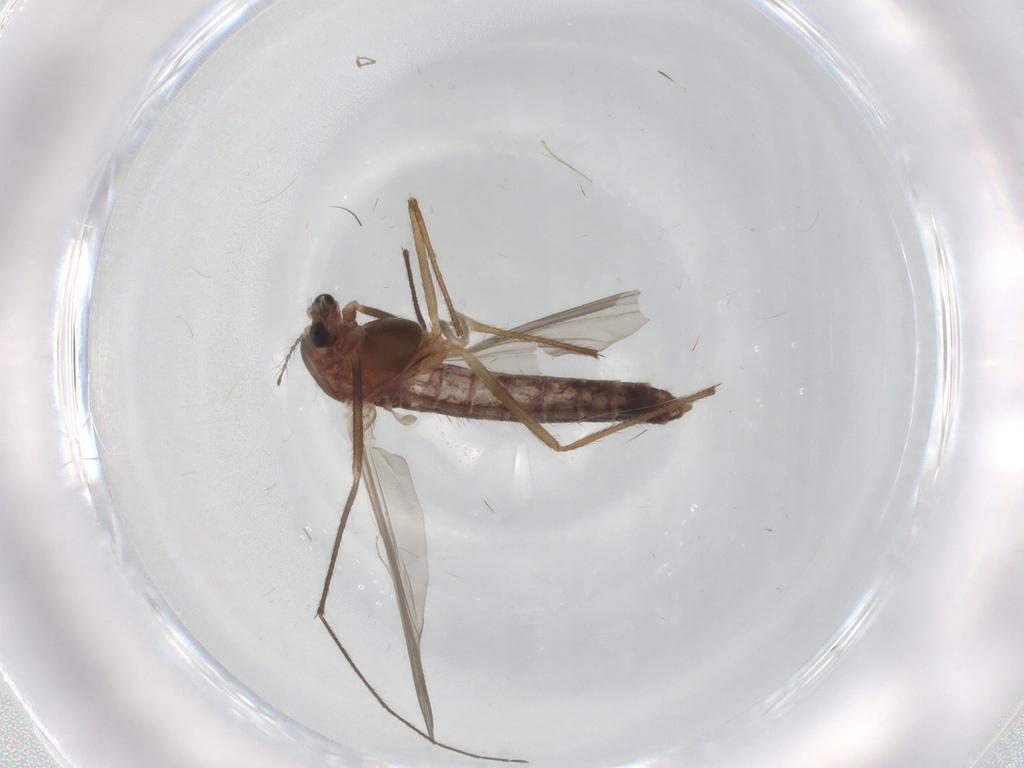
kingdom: Animalia
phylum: Arthropoda
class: Insecta
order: Diptera
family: Chironomidae
